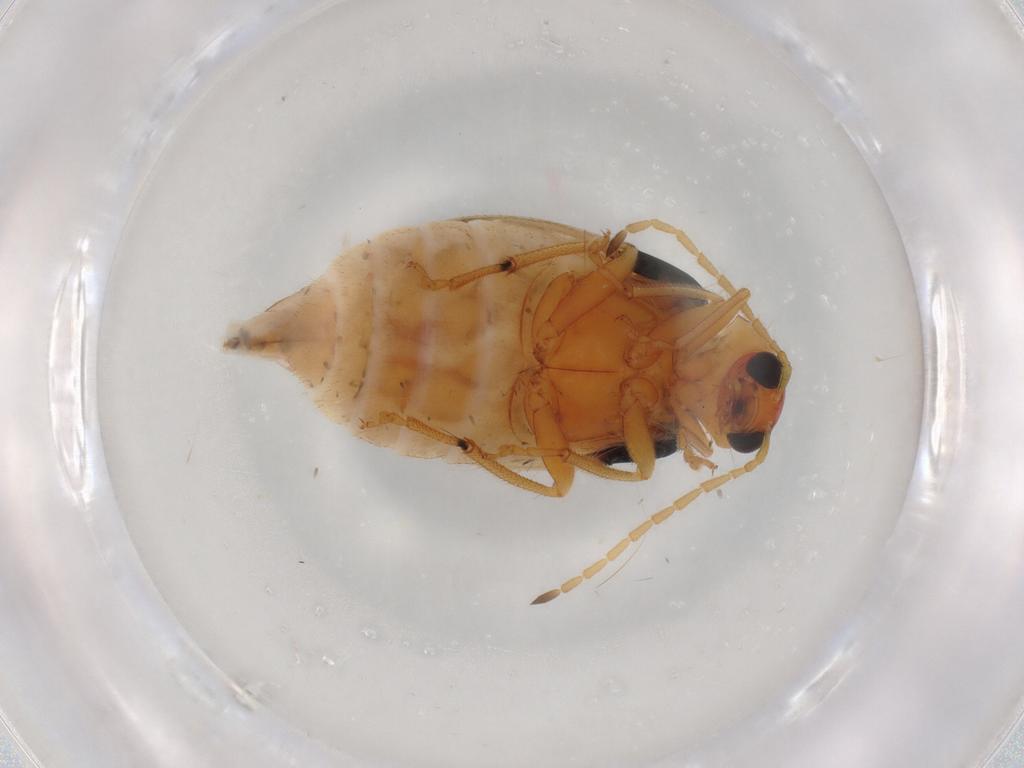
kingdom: Animalia
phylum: Arthropoda
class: Insecta
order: Coleoptera
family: Chrysomelidae
